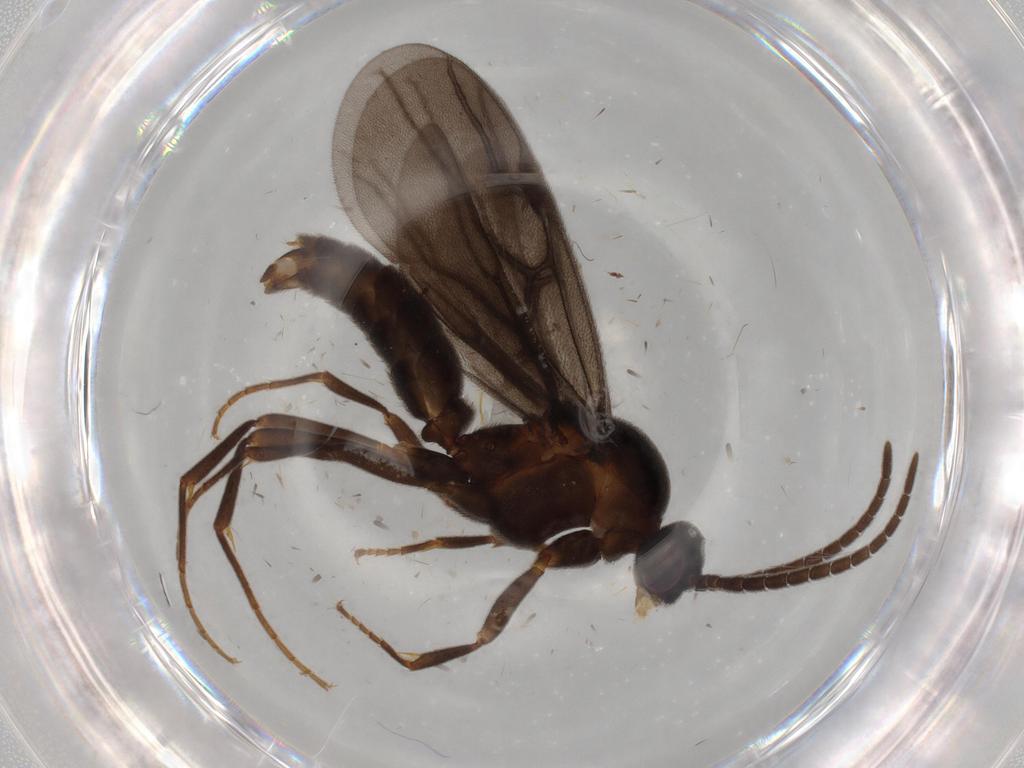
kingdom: Animalia
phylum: Arthropoda
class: Insecta
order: Hymenoptera
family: Formicidae
